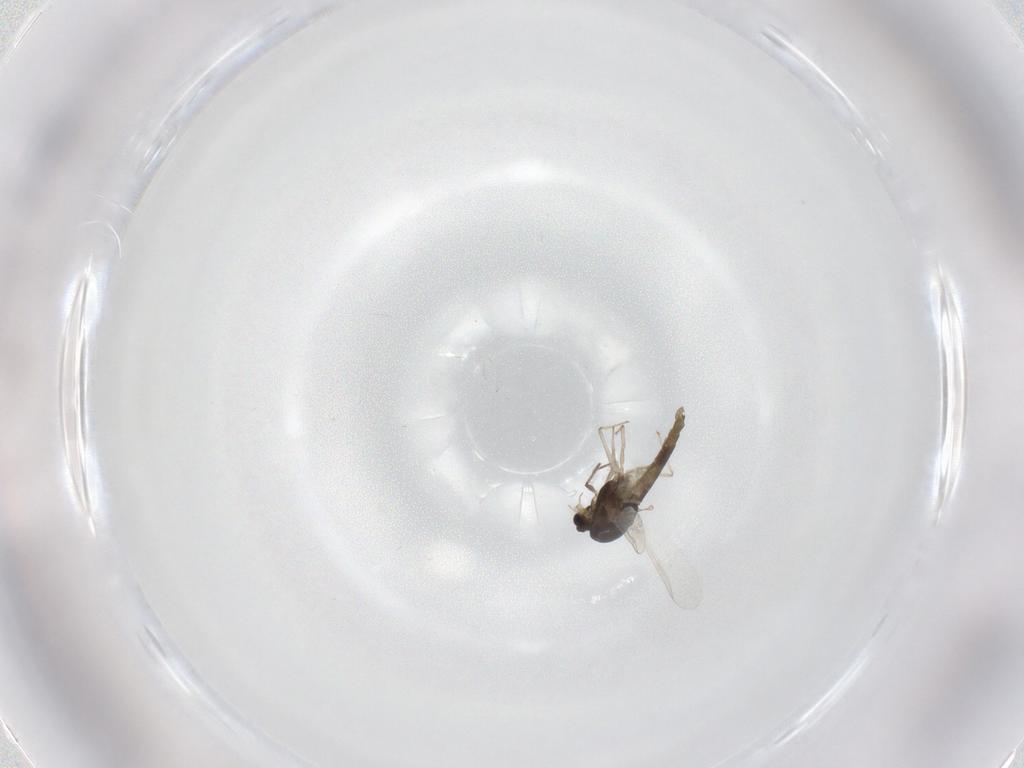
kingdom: Animalia
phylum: Arthropoda
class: Insecta
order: Diptera
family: Chironomidae
